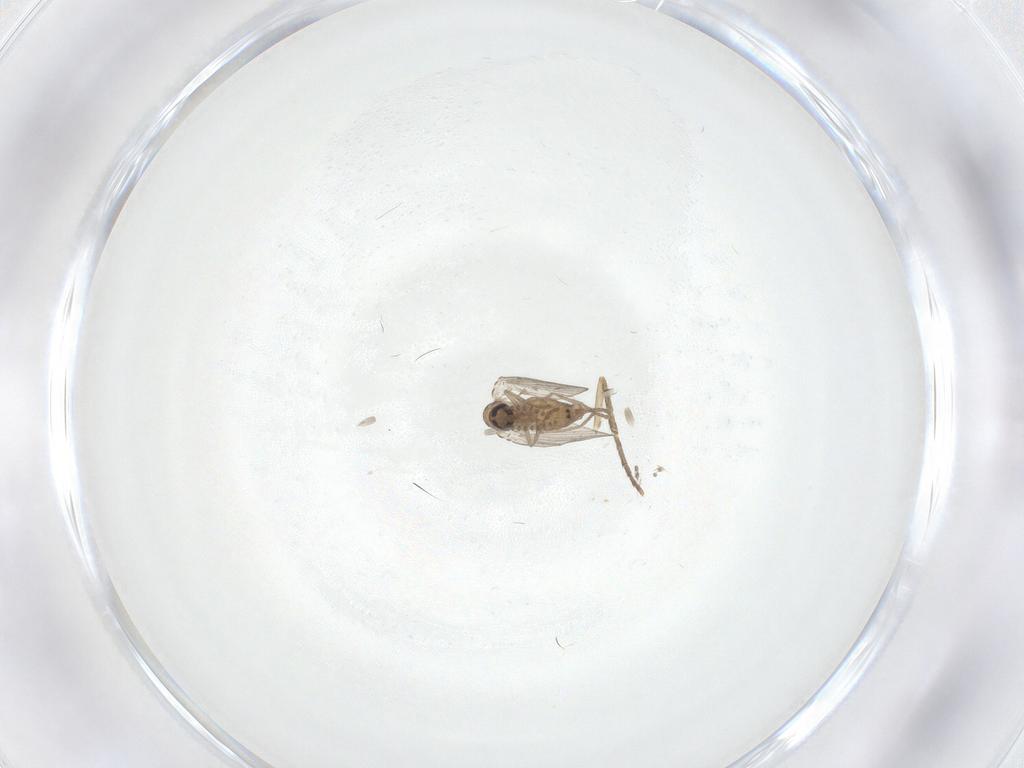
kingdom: Animalia
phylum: Arthropoda
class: Insecta
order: Diptera
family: Psychodidae
